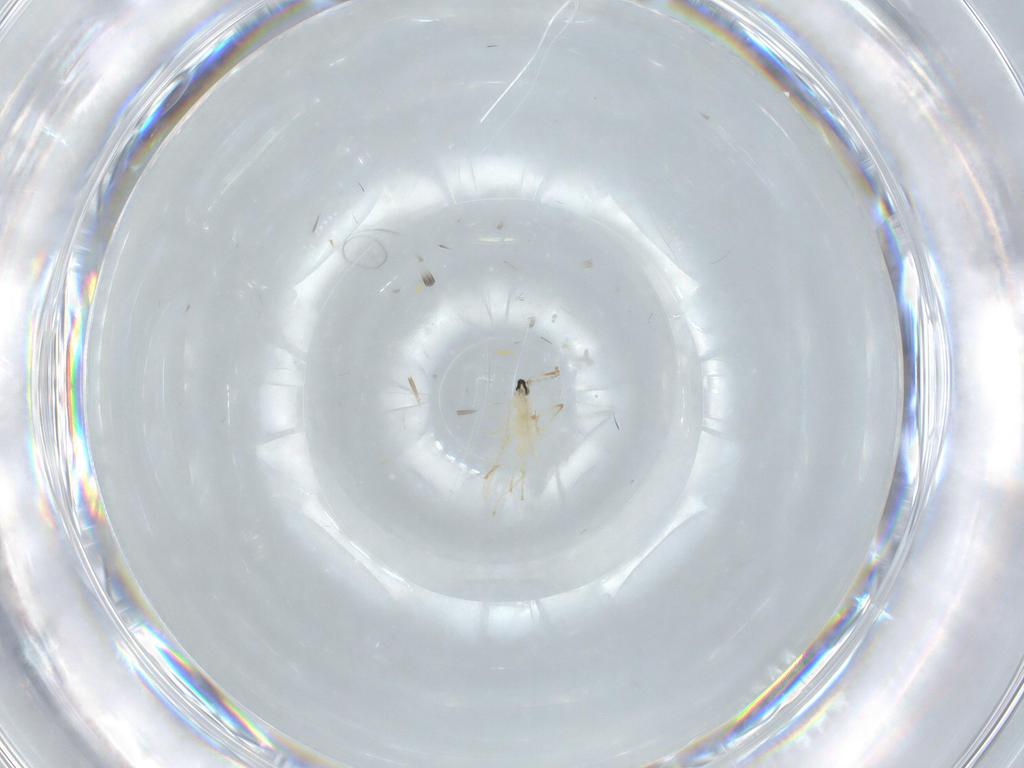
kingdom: Animalia
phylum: Arthropoda
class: Insecta
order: Diptera
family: Cecidomyiidae
